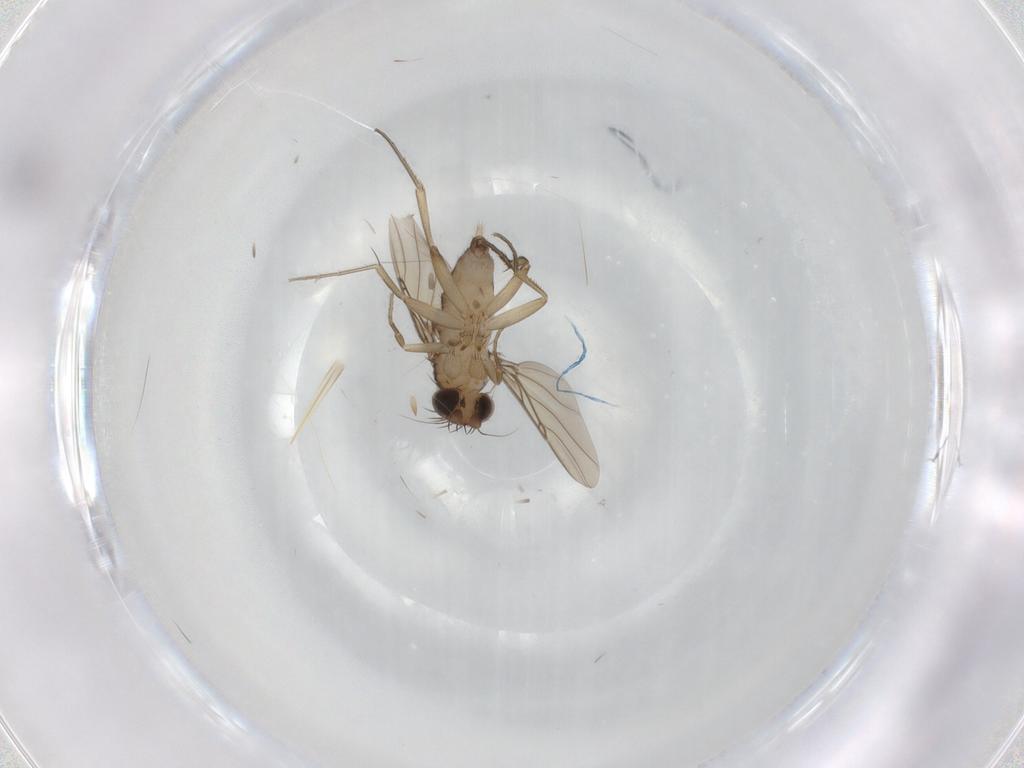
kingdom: Animalia
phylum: Arthropoda
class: Insecta
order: Diptera
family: Phoridae
